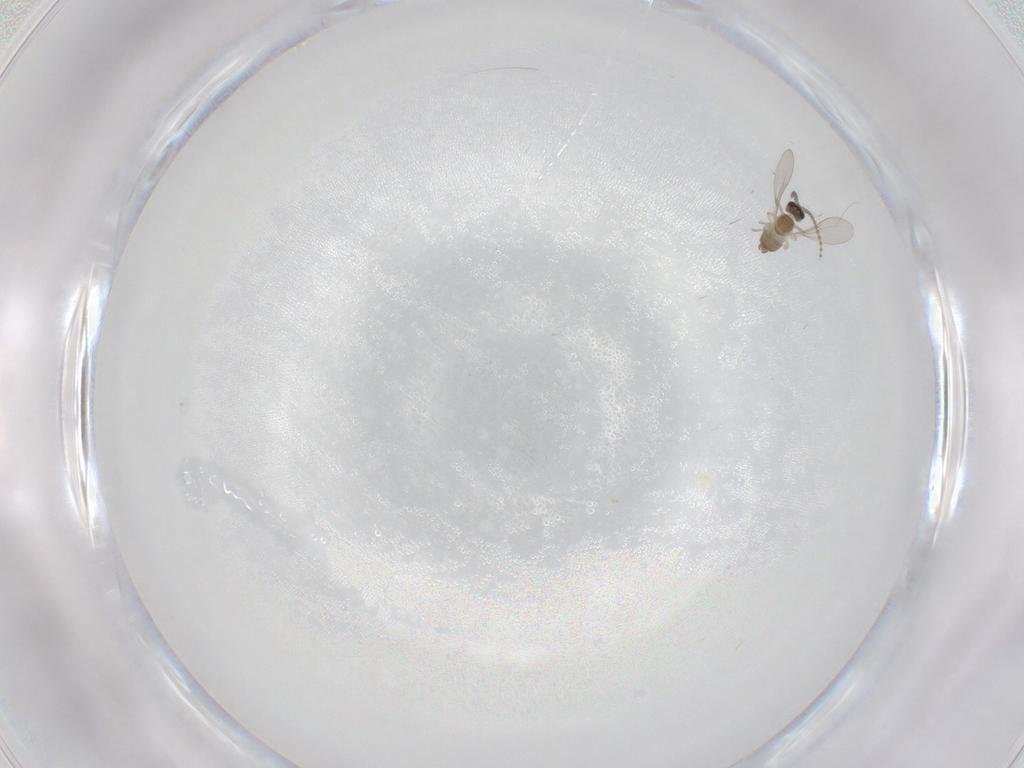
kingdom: Animalia
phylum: Arthropoda
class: Insecta
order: Diptera
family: Cecidomyiidae
